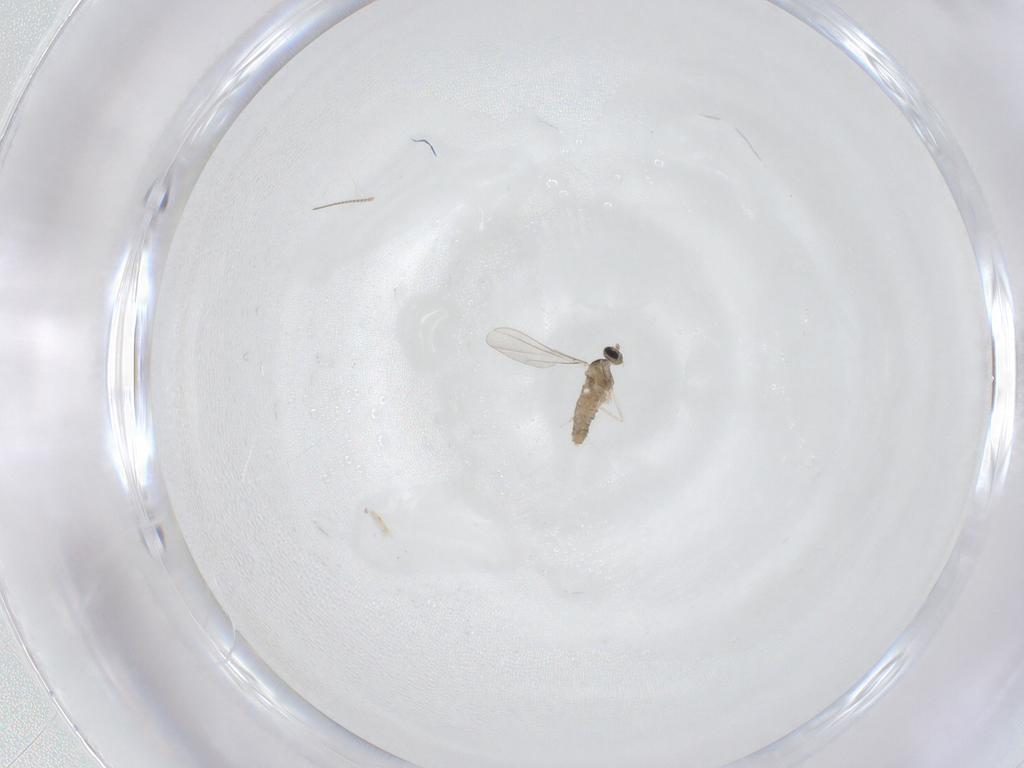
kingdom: Animalia
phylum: Arthropoda
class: Insecta
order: Diptera
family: Cecidomyiidae
